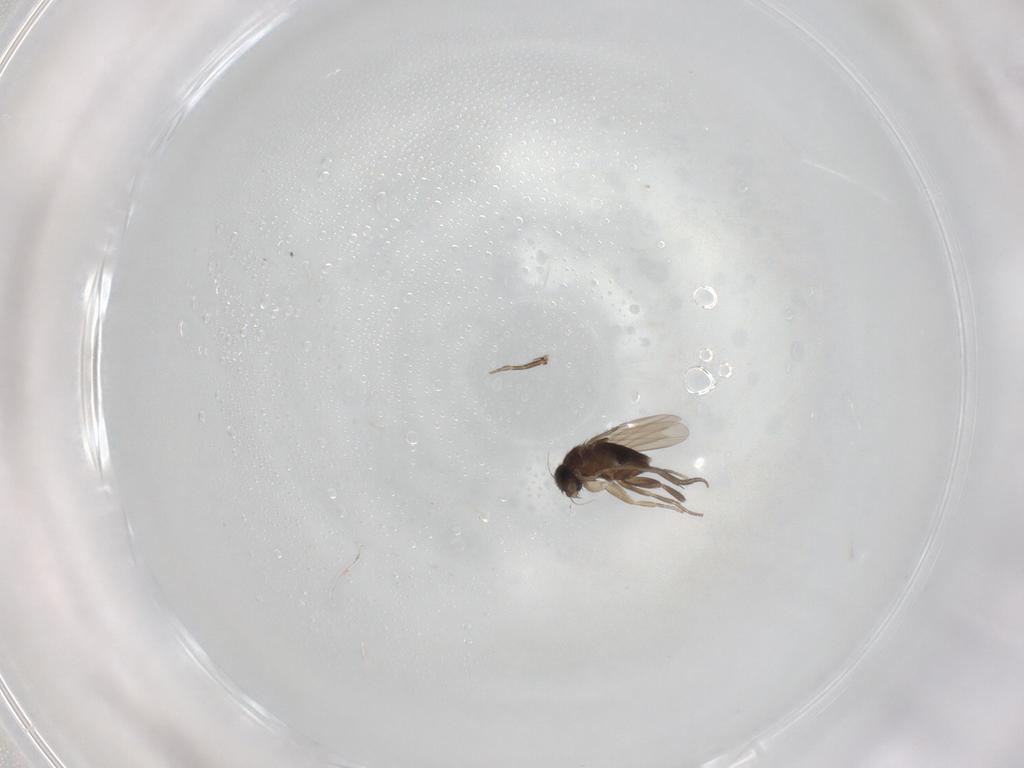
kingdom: Animalia
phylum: Arthropoda
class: Insecta
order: Diptera
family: Phoridae
